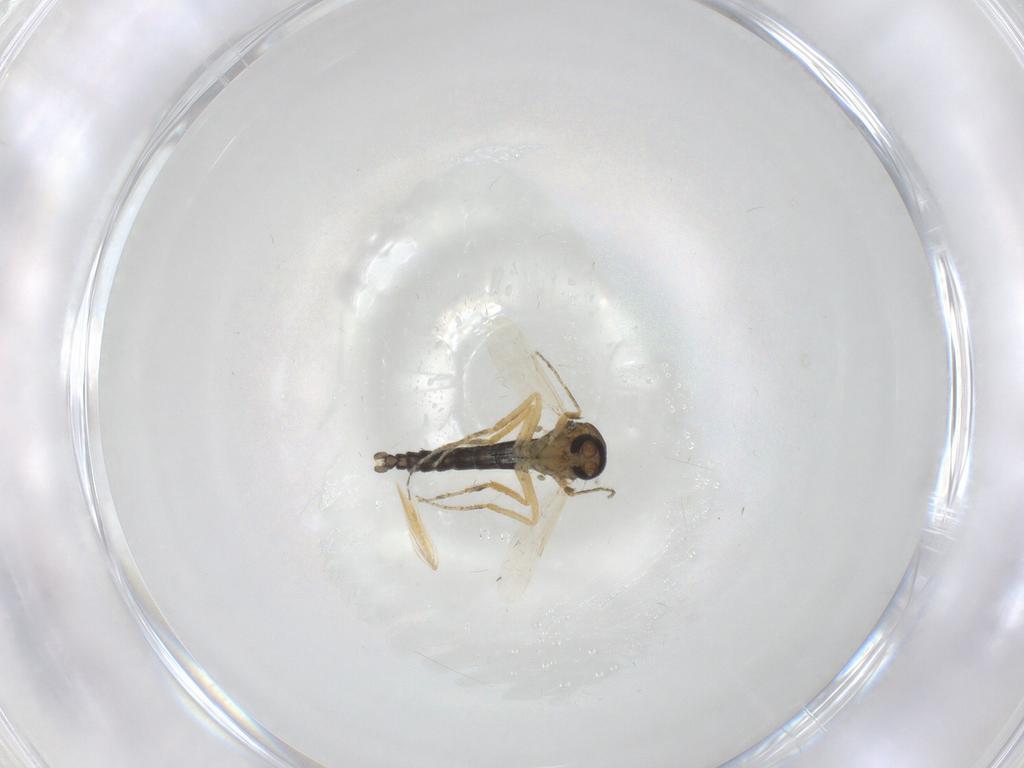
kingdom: Animalia
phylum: Arthropoda
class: Insecta
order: Diptera
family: Ceratopogonidae
